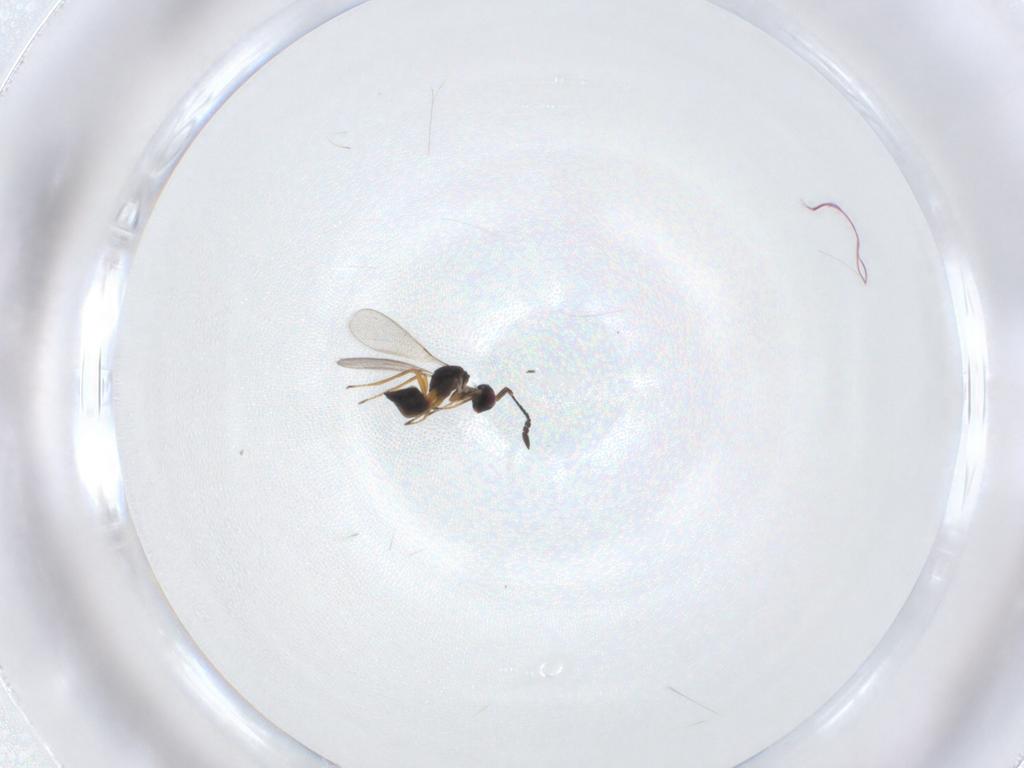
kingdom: Animalia
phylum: Arthropoda
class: Insecta
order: Hymenoptera
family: Mymaridae
